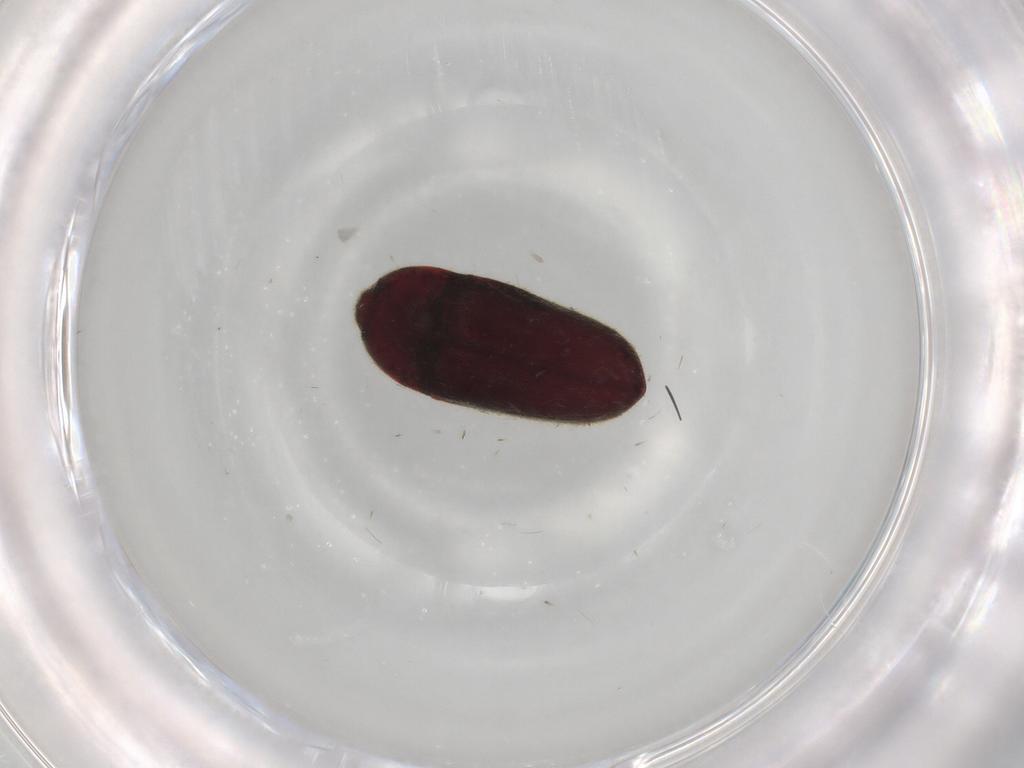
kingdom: Animalia
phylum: Arthropoda
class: Insecta
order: Coleoptera
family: Throscidae
